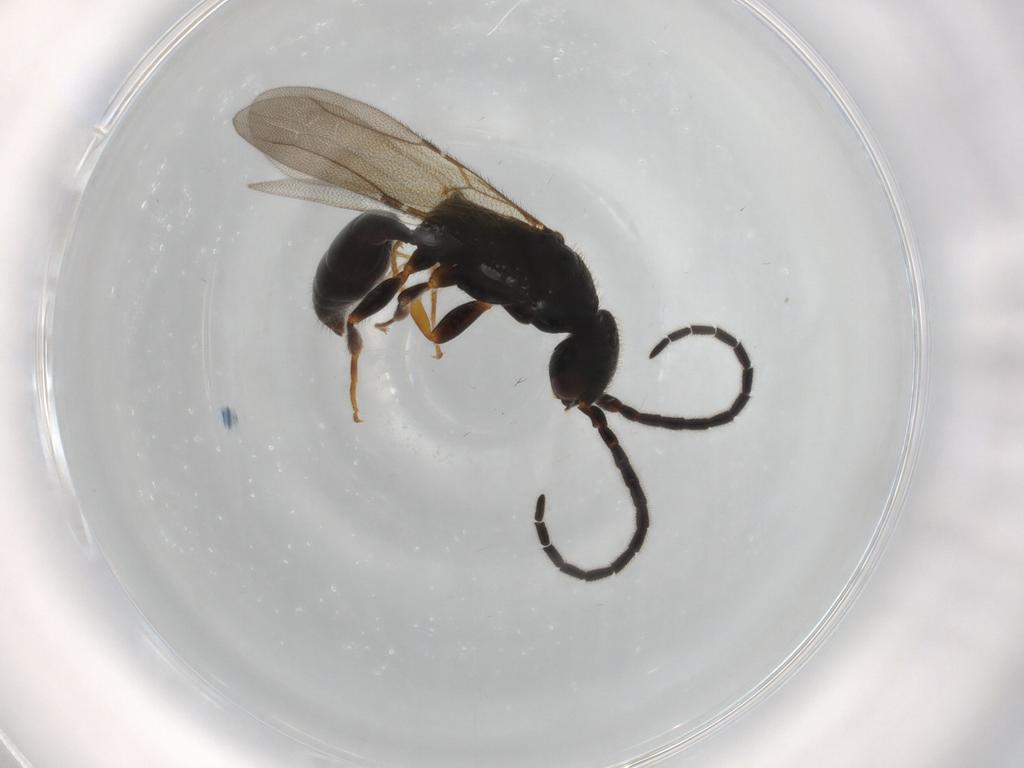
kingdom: Animalia
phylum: Arthropoda
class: Insecta
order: Hymenoptera
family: Bethylidae
